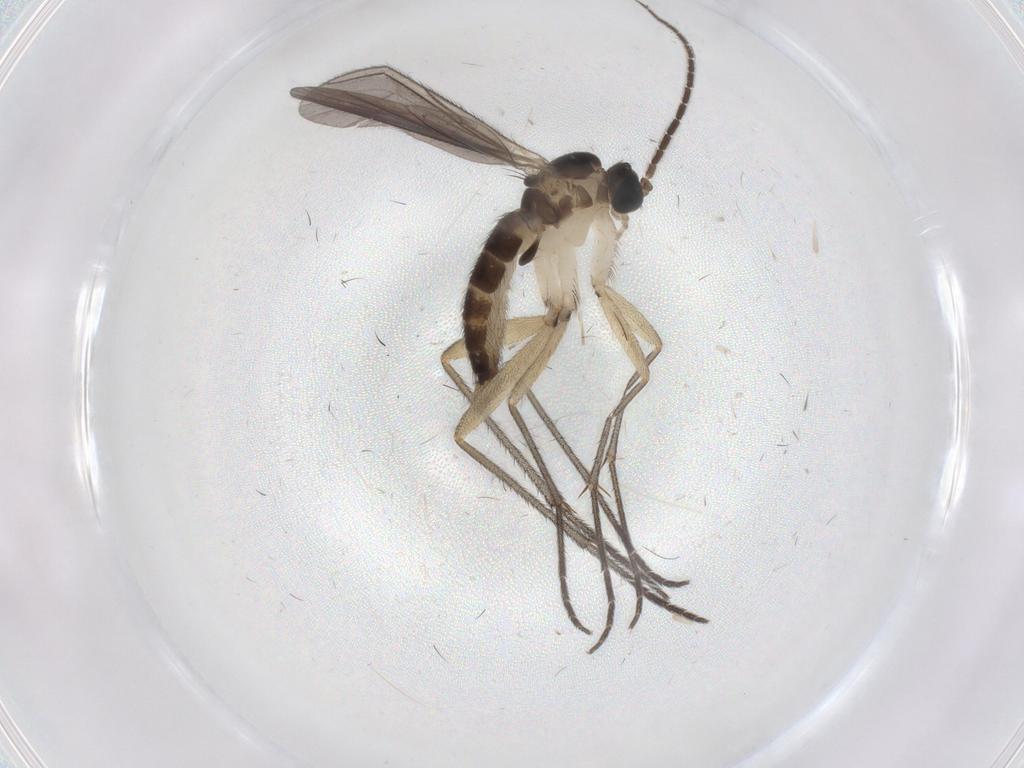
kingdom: Animalia
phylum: Arthropoda
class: Insecta
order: Diptera
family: Sciaridae
